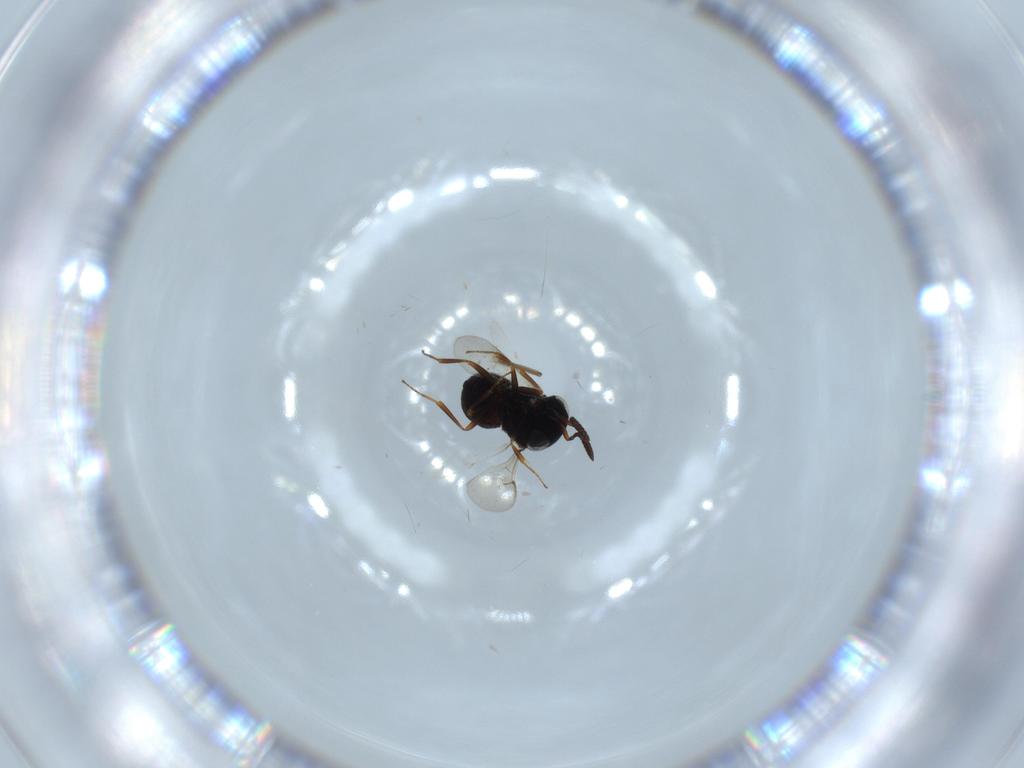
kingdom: Animalia
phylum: Arthropoda
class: Insecta
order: Hymenoptera
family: Scelionidae
